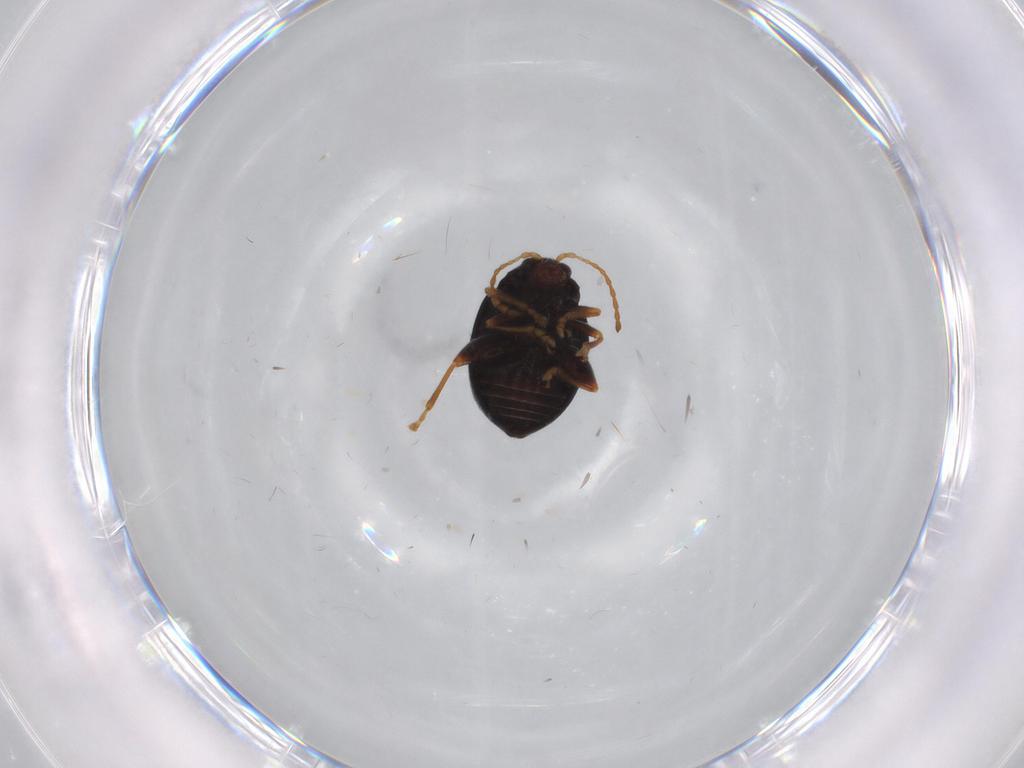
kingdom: Animalia
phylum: Arthropoda
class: Insecta
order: Coleoptera
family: Chrysomelidae
